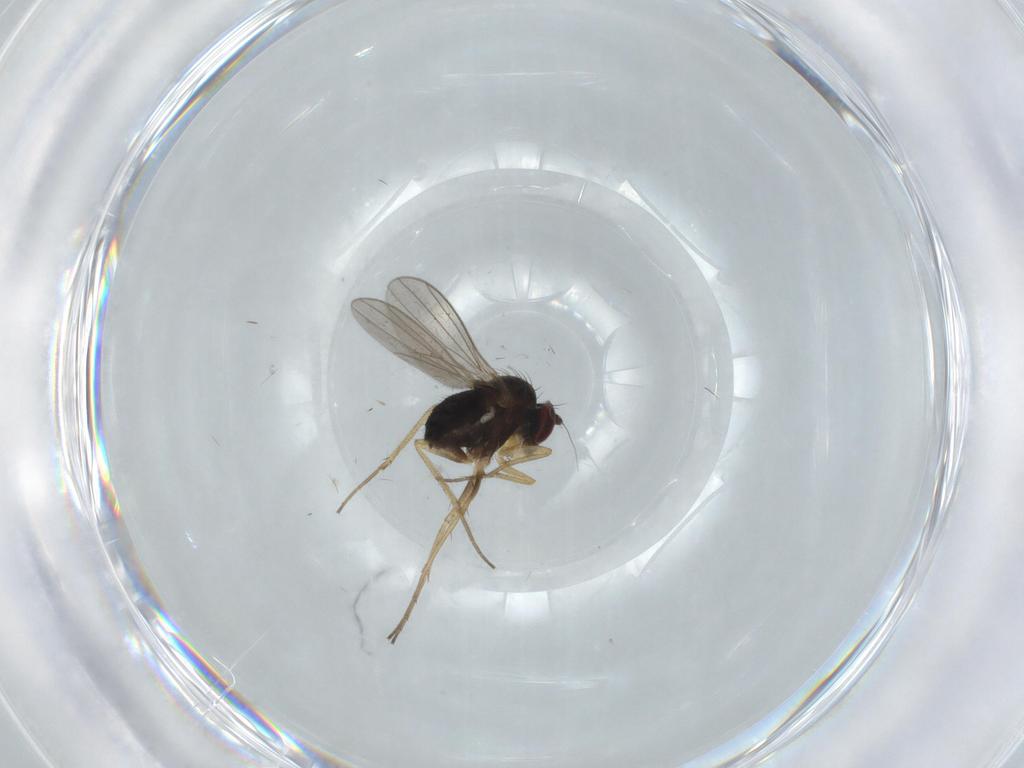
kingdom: Animalia
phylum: Arthropoda
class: Insecta
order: Diptera
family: Dolichopodidae
